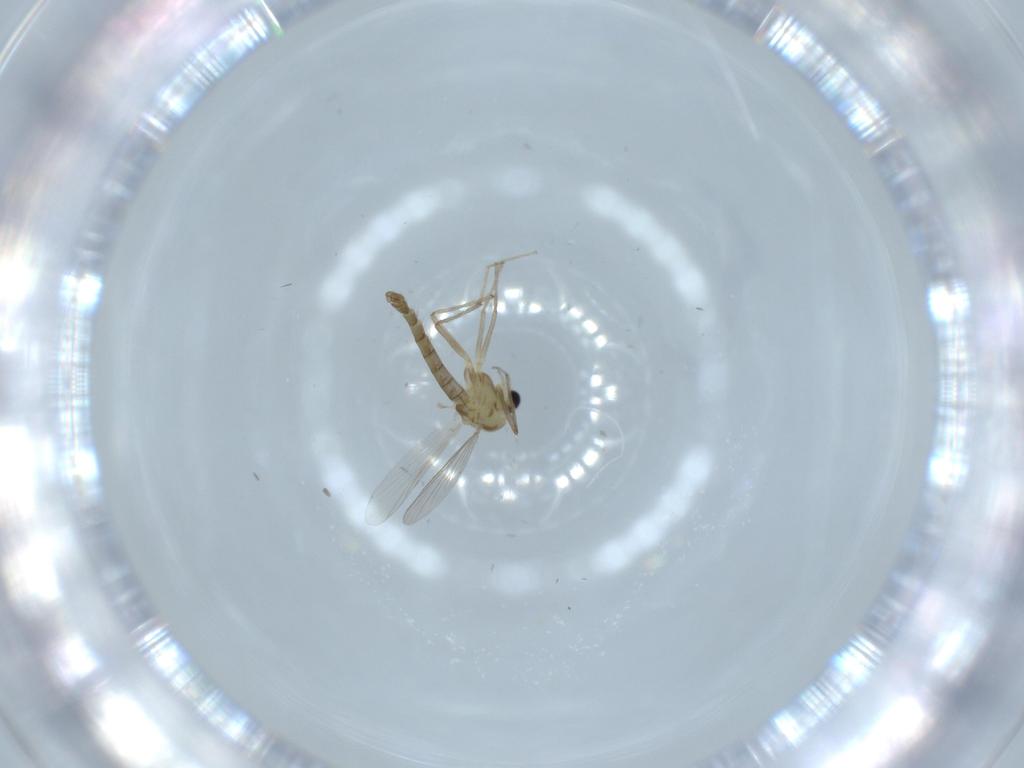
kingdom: Animalia
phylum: Arthropoda
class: Insecta
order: Diptera
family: Chironomidae
